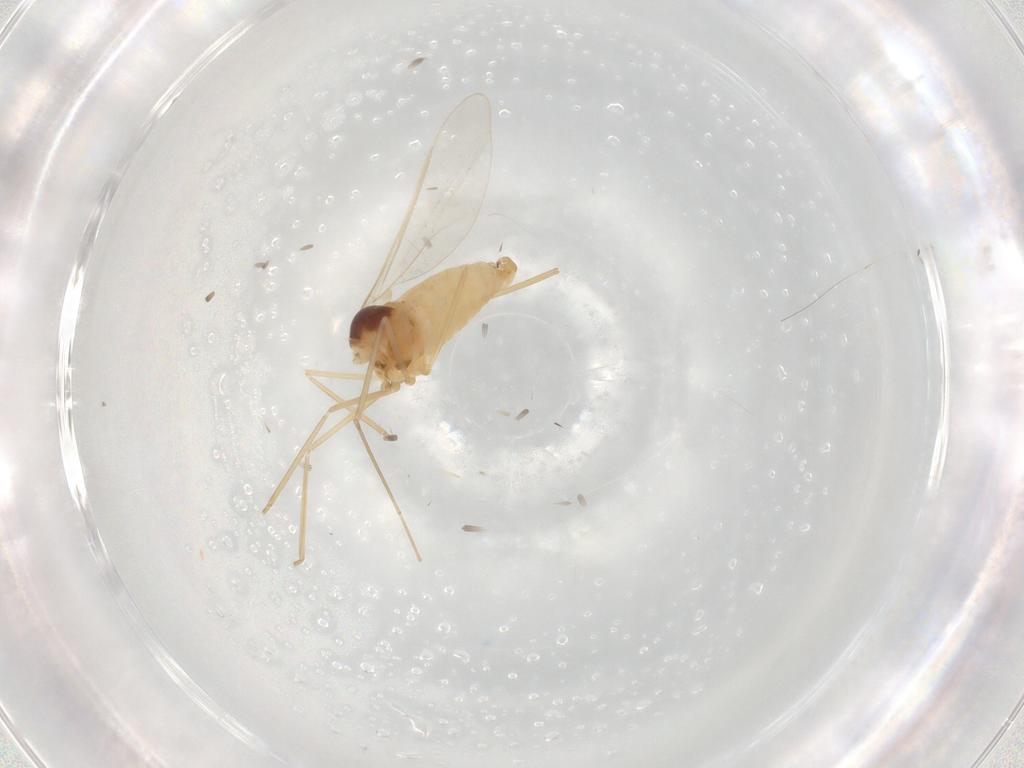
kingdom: Animalia
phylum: Arthropoda
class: Insecta
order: Diptera
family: Cecidomyiidae
